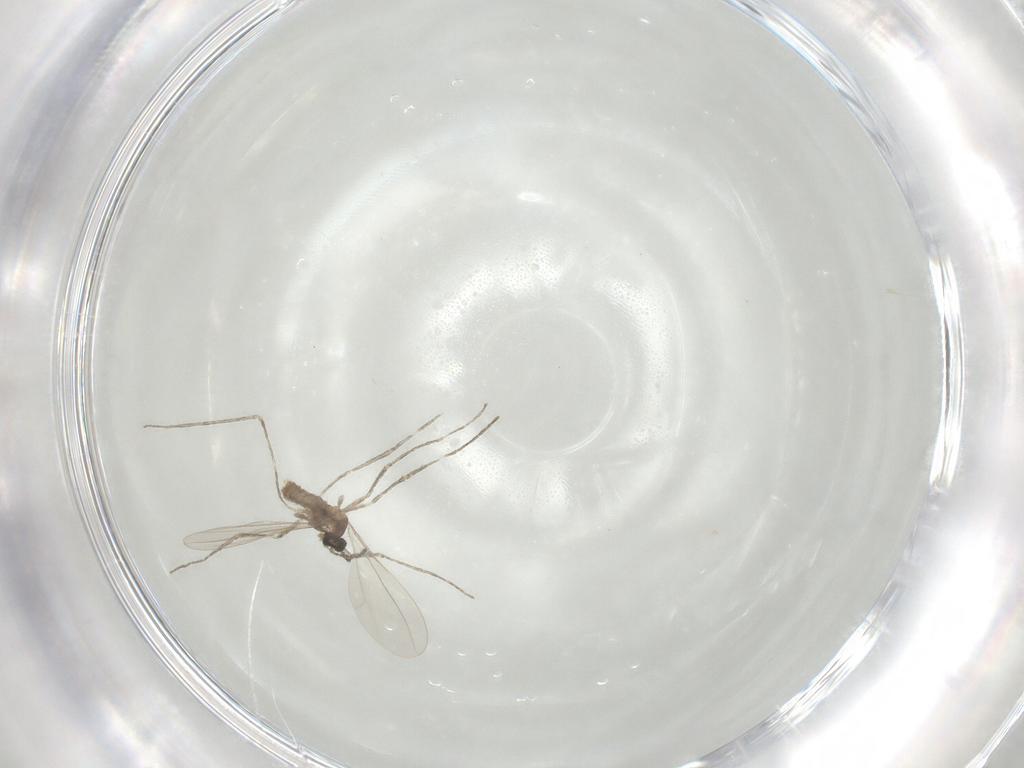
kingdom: Animalia
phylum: Arthropoda
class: Insecta
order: Diptera
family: Cecidomyiidae
